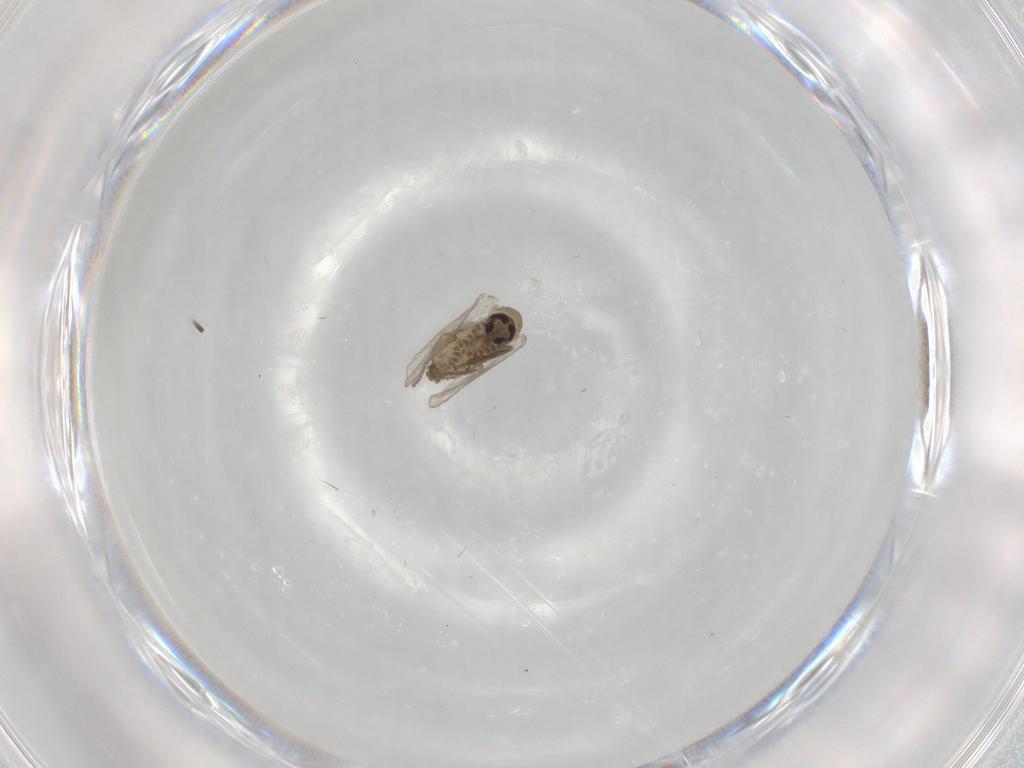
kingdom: Animalia
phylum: Arthropoda
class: Insecta
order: Diptera
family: Psychodidae
